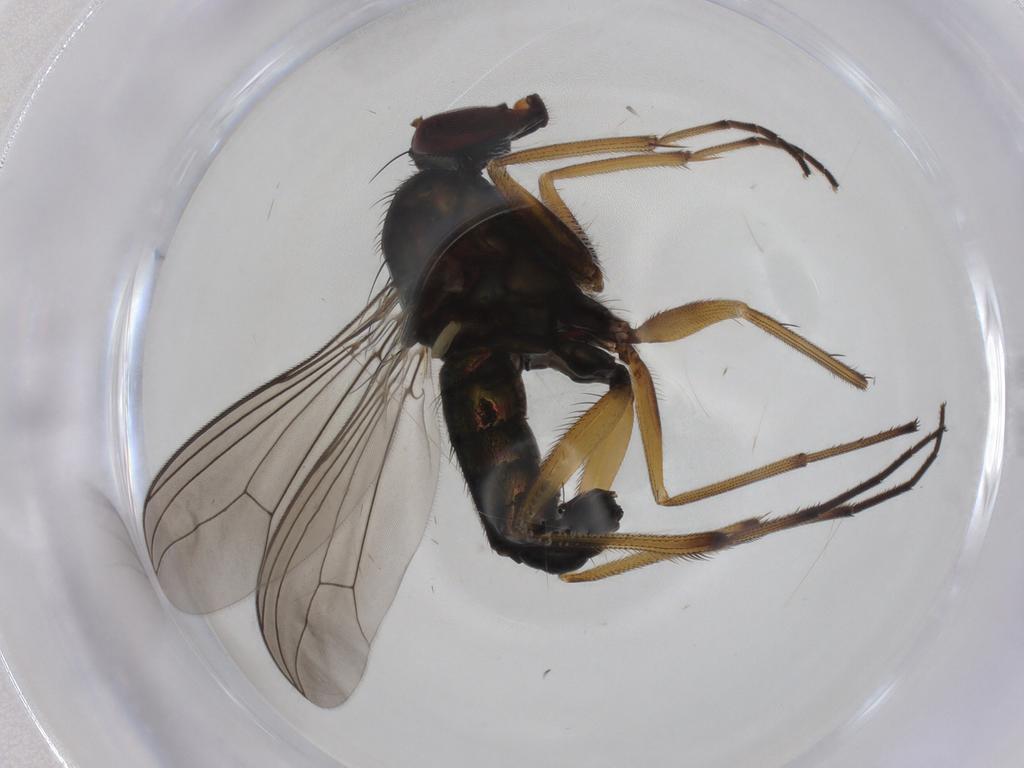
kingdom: Animalia
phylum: Arthropoda
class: Insecta
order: Diptera
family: Dolichopodidae
